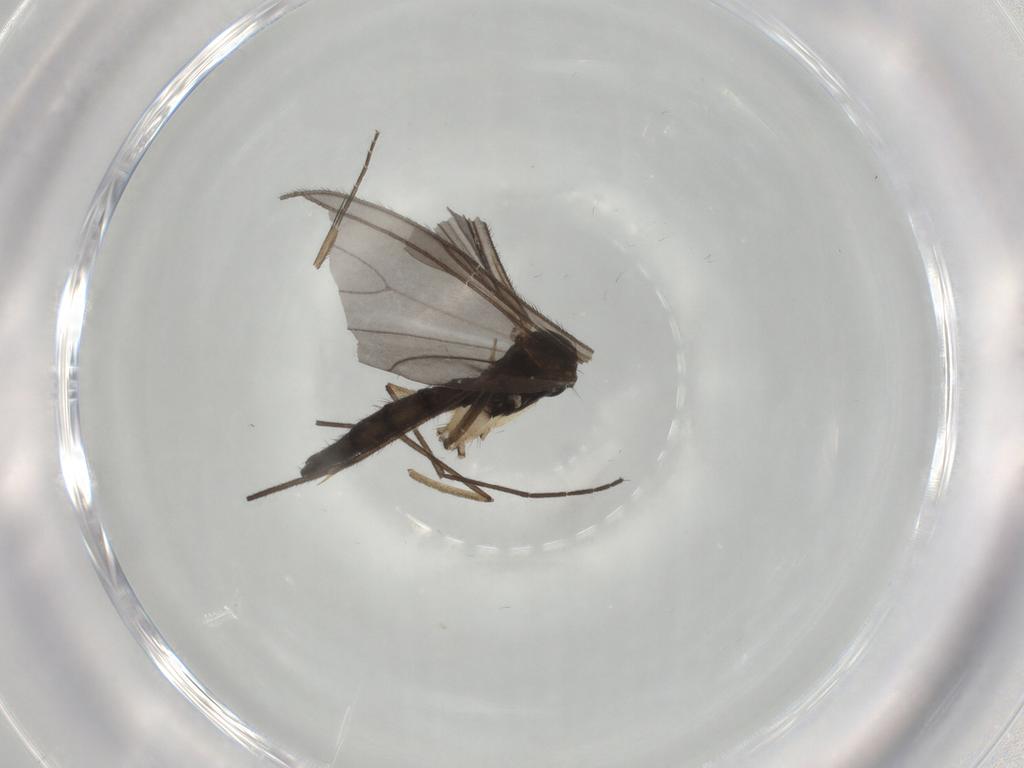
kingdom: Animalia
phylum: Arthropoda
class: Insecta
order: Diptera
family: Sciaridae
